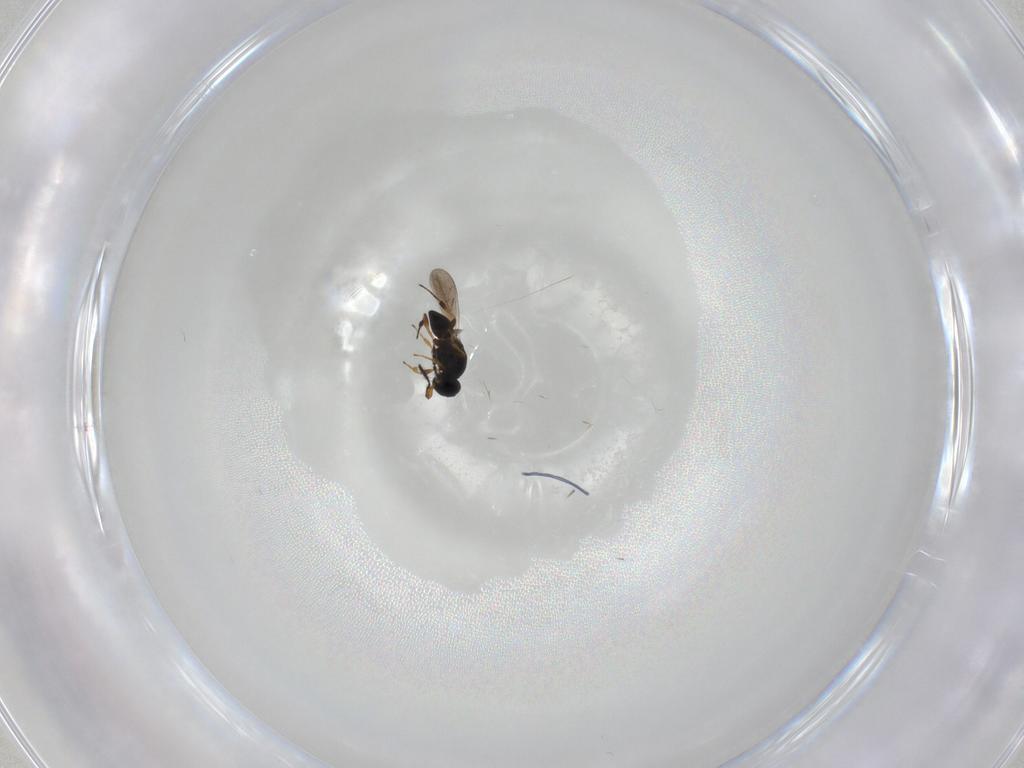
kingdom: Animalia
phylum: Arthropoda
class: Insecta
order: Hymenoptera
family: Platygastridae
